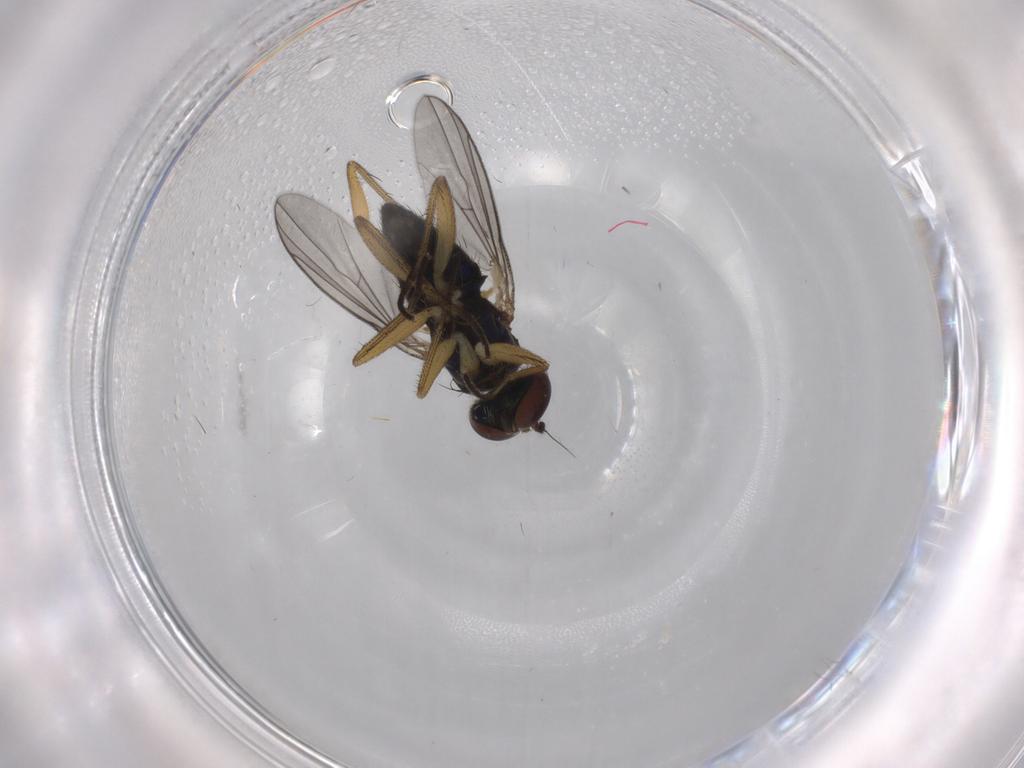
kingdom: Animalia
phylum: Arthropoda
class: Insecta
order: Diptera
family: Dolichopodidae
